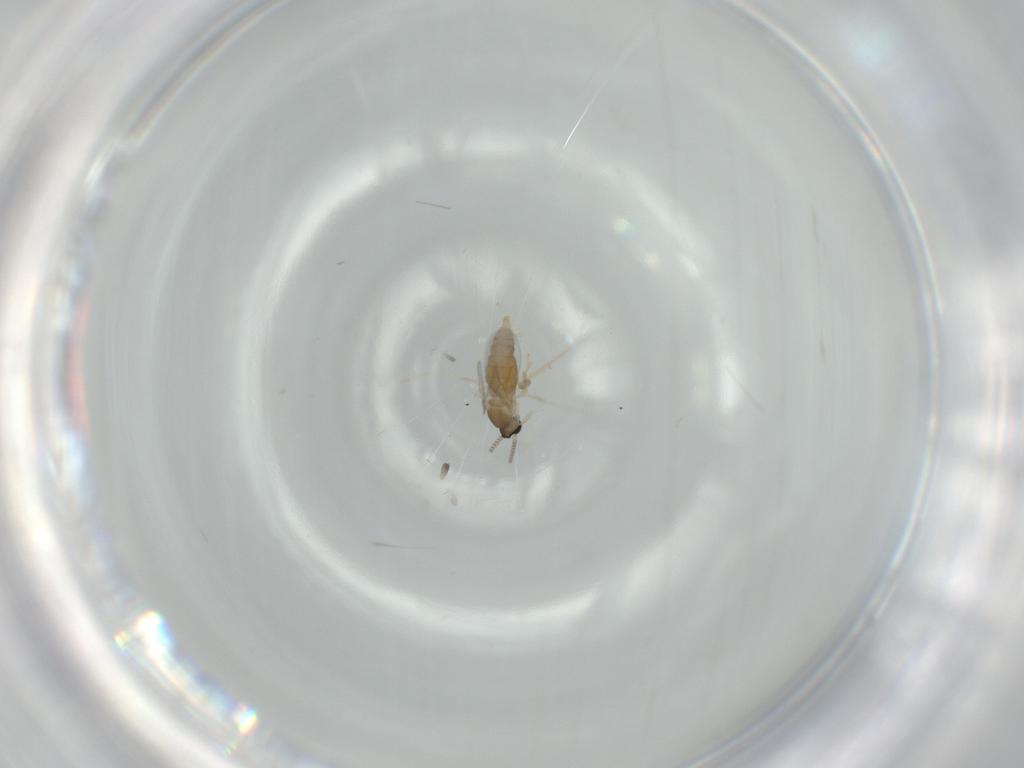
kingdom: Animalia
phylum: Arthropoda
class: Insecta
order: Diptera
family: Cecidomyiidae
